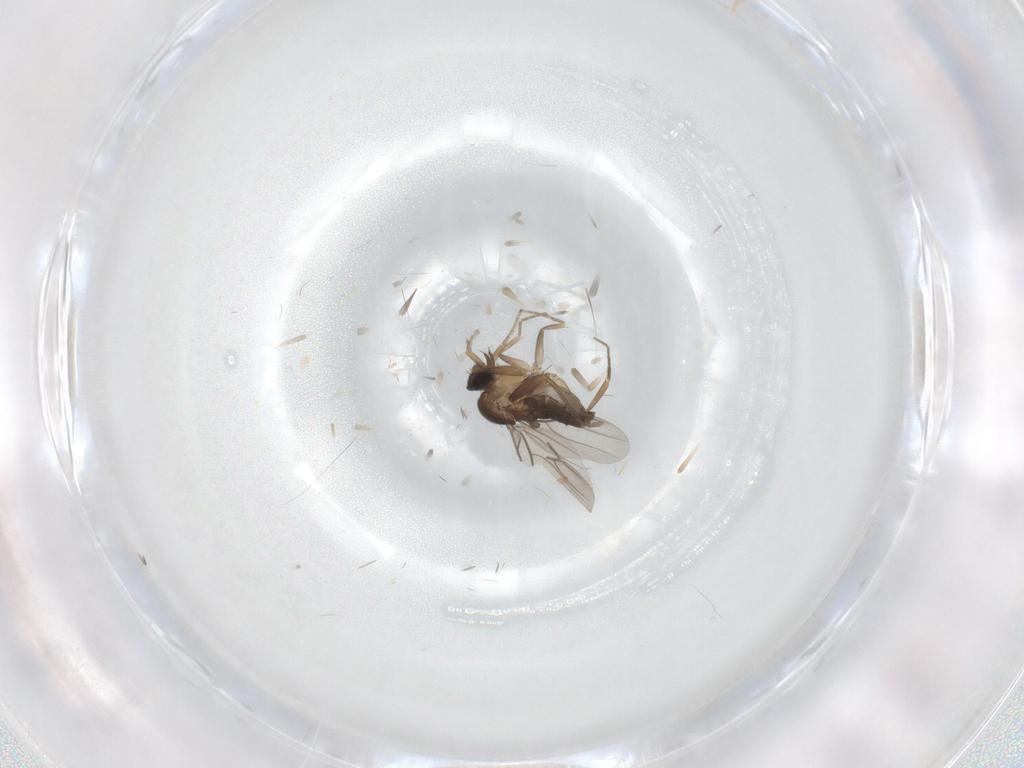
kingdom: Animalia
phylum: Arthropoda
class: Insecta
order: Diptera
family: Phoridae
